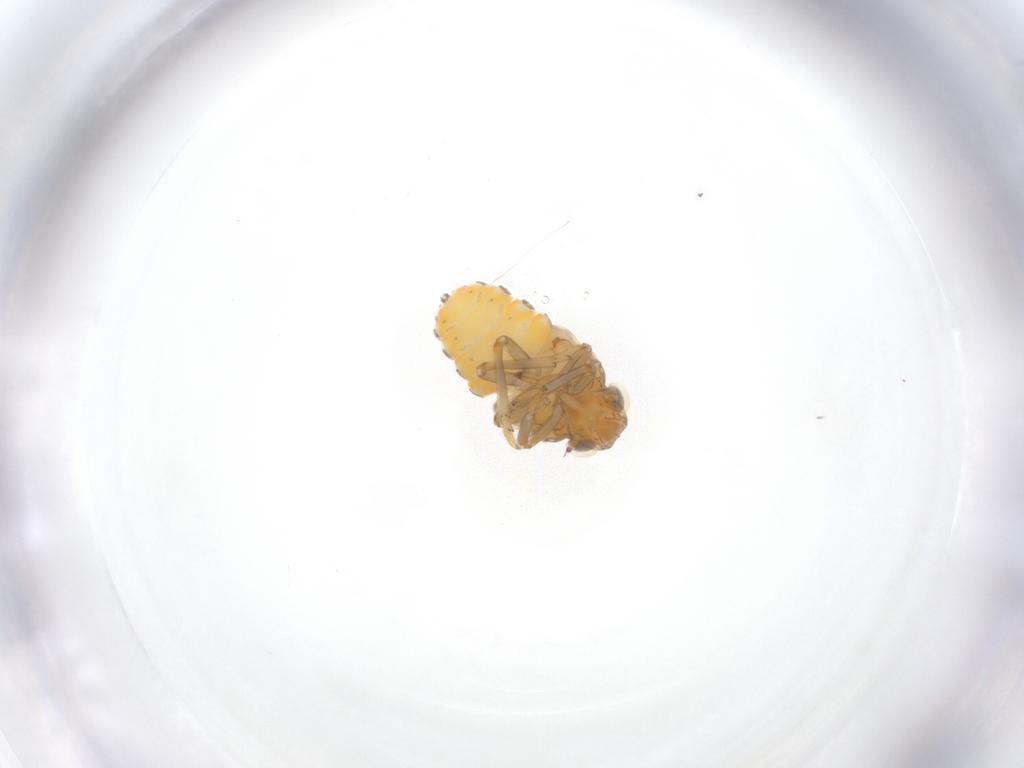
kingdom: Animalia
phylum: Arthropoda
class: Insecta
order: Hemiptera
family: Issidae
